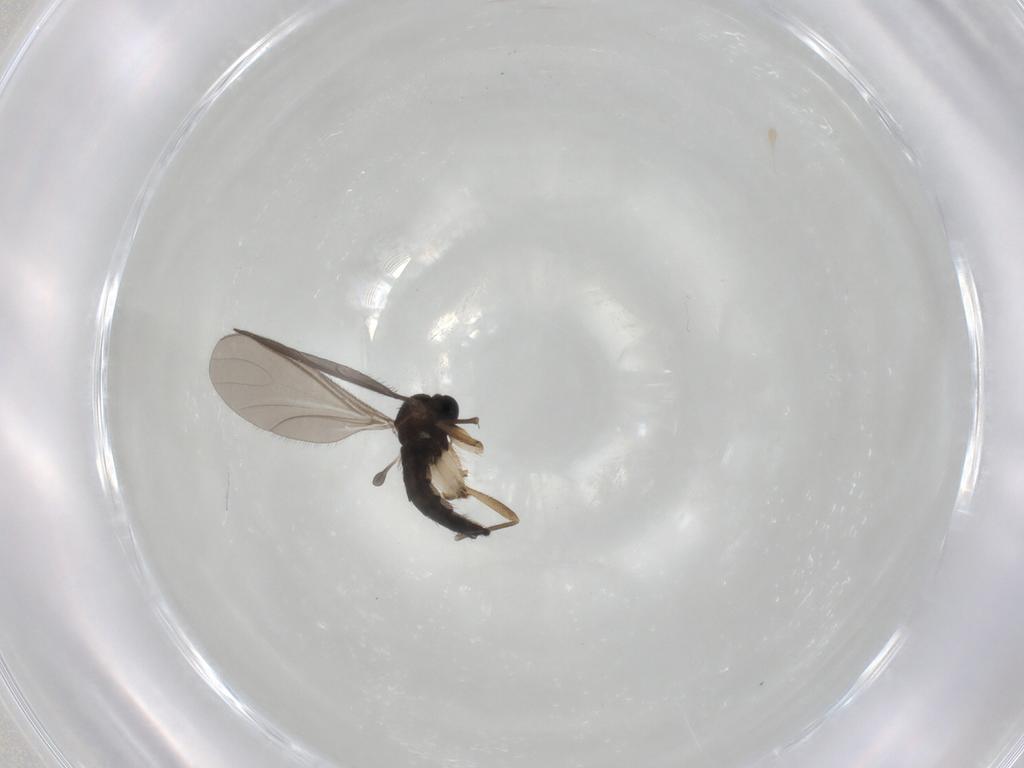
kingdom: Animalia
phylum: Arthropoda
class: Insecta
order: Diptera
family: Sciaridae
